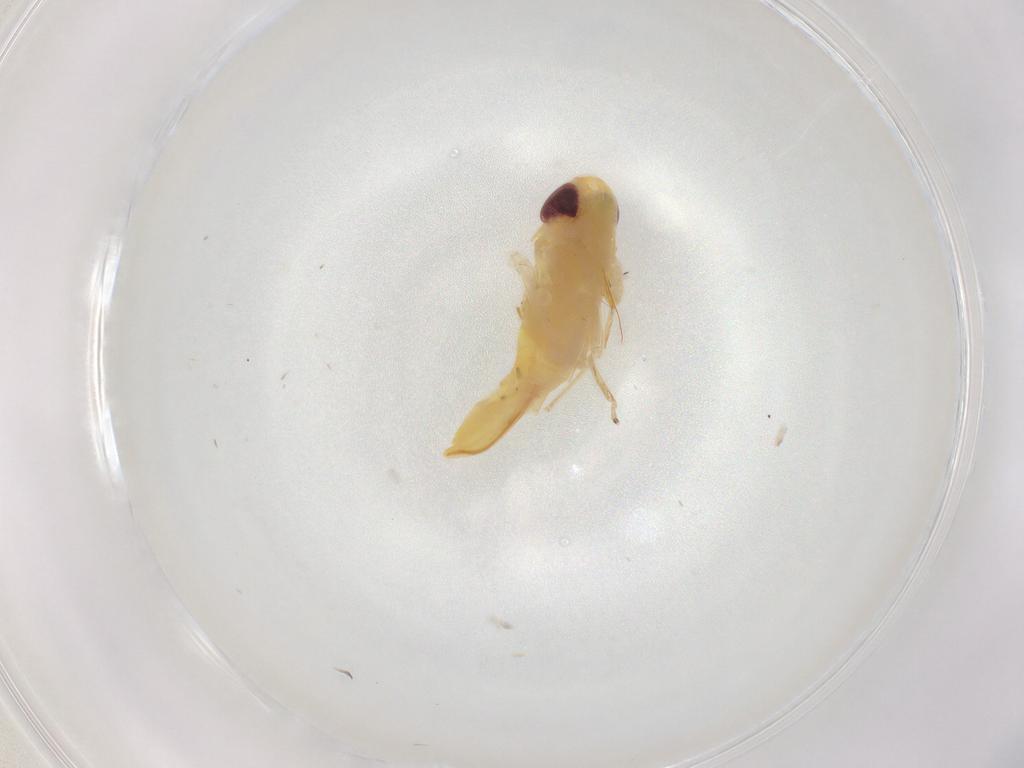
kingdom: Animalia
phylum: Arthropoda
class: Insecta
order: Hemiptera
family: Cicadellidae
